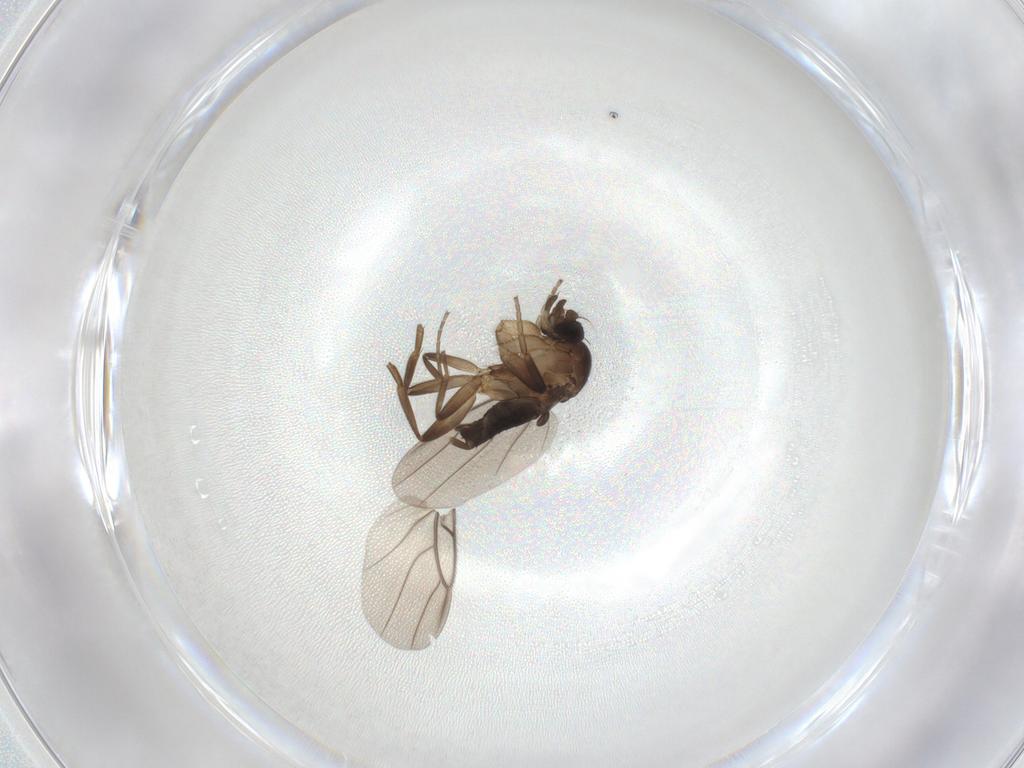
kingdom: Animalia
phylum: Arthropoda
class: Insecta
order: Diptera
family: Phoridae
